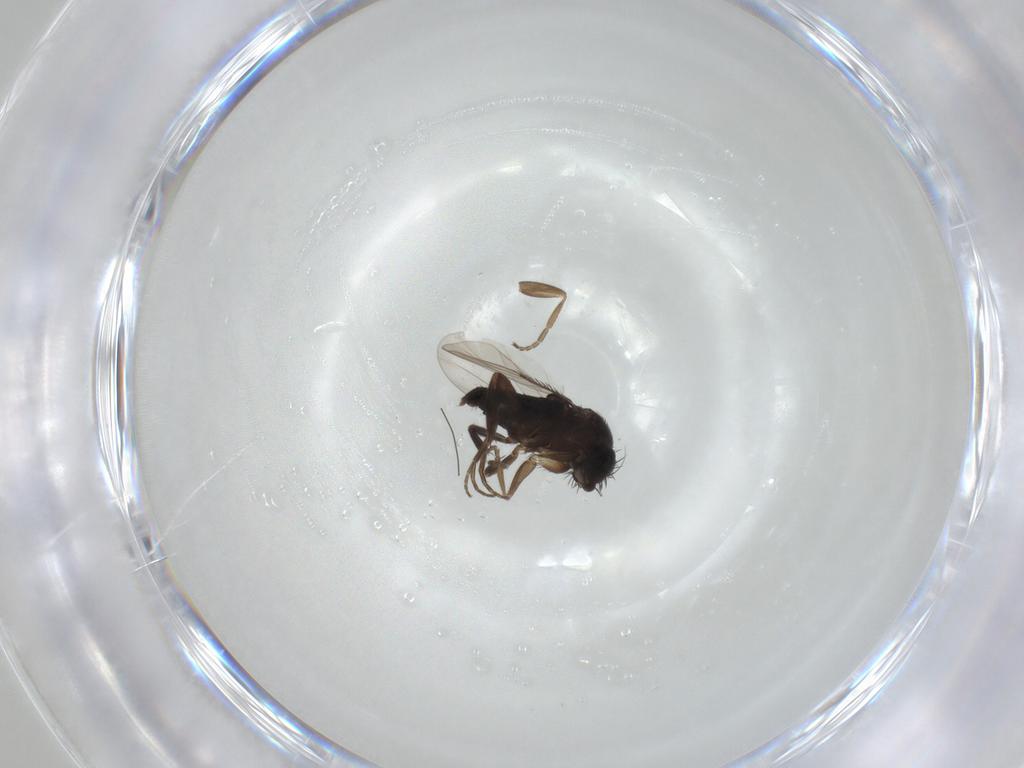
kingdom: Animalia
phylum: Arthropoda
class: Insecta
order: Diptera
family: Phoridae
